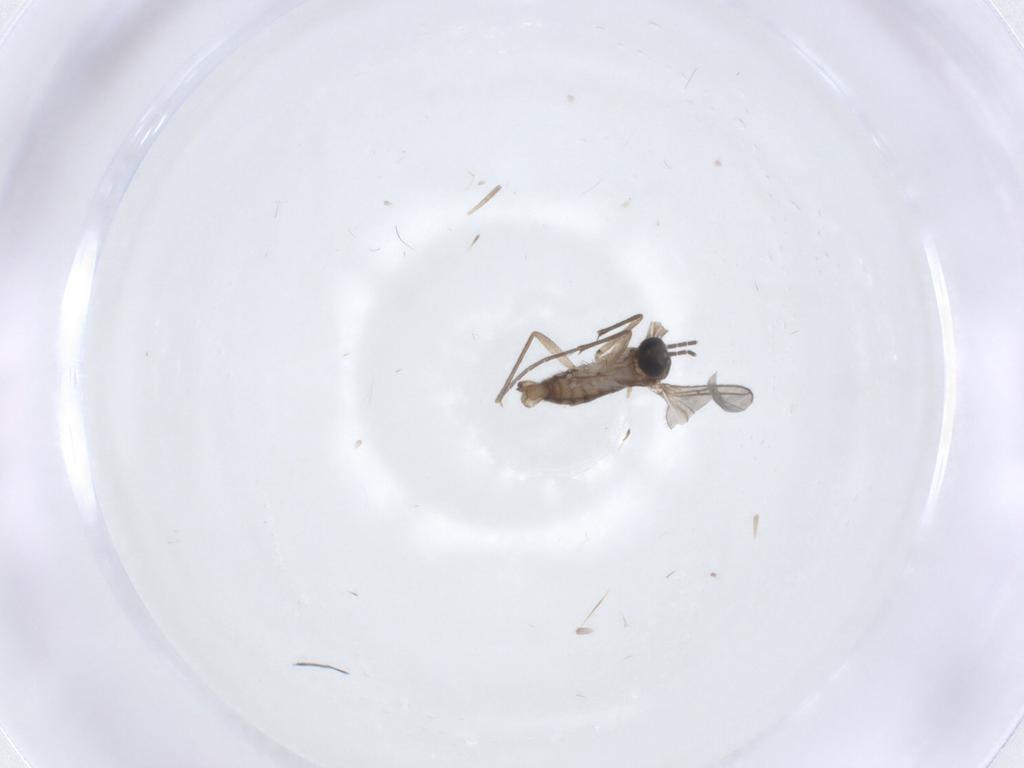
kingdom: Animalia
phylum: Arthropoda
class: Insecta
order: Diptera
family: Sciaridae
